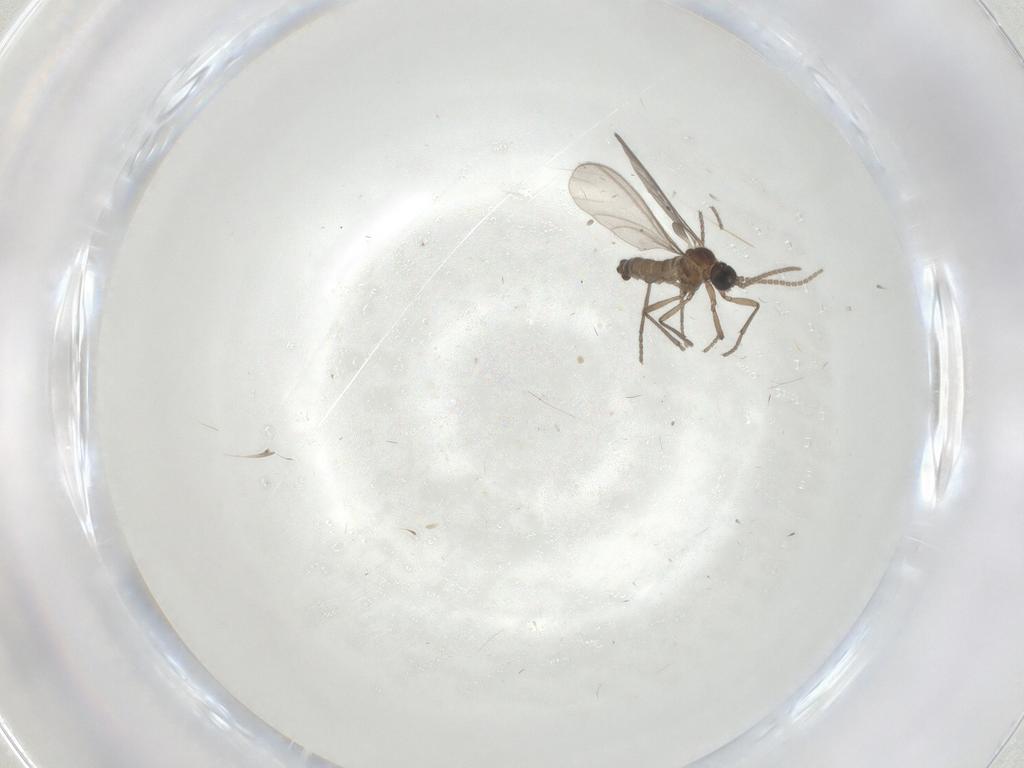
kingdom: Animalia
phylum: Arthropoda
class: Insecta
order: Diptera
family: Sciaridae
